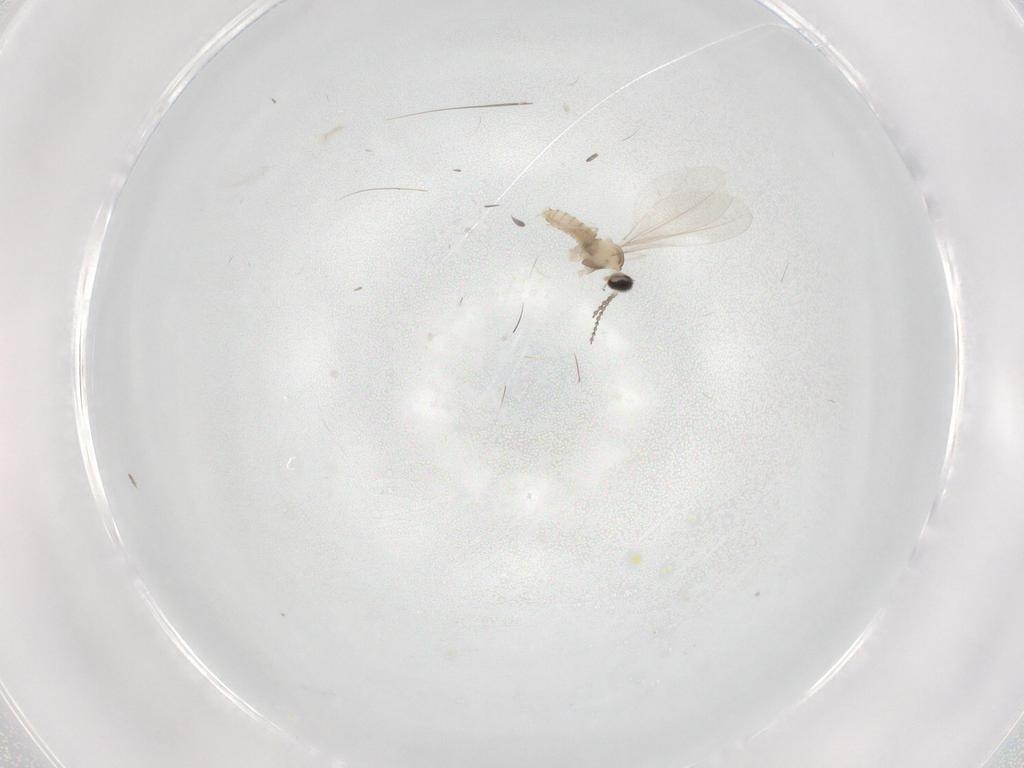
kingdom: Animalia
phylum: Arthropoda
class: Insecta
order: Diptera
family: Cecidomyiidae
